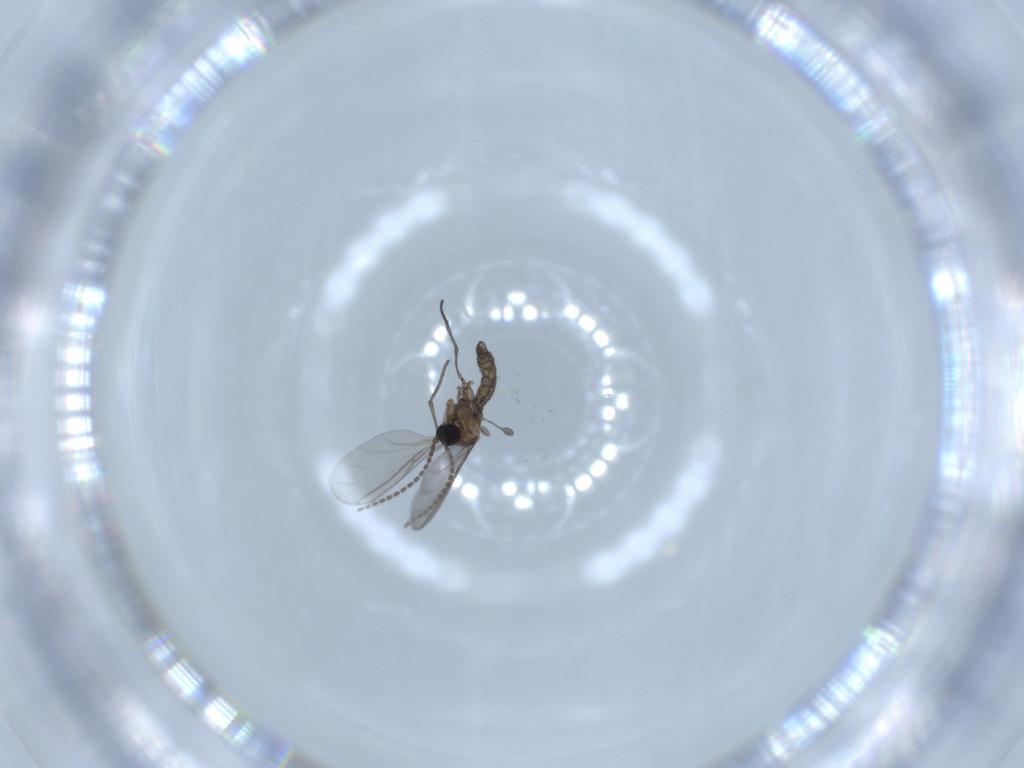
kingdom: Animalia
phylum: Arthropoda
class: Insecta
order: Diptera
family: Sciaridae
